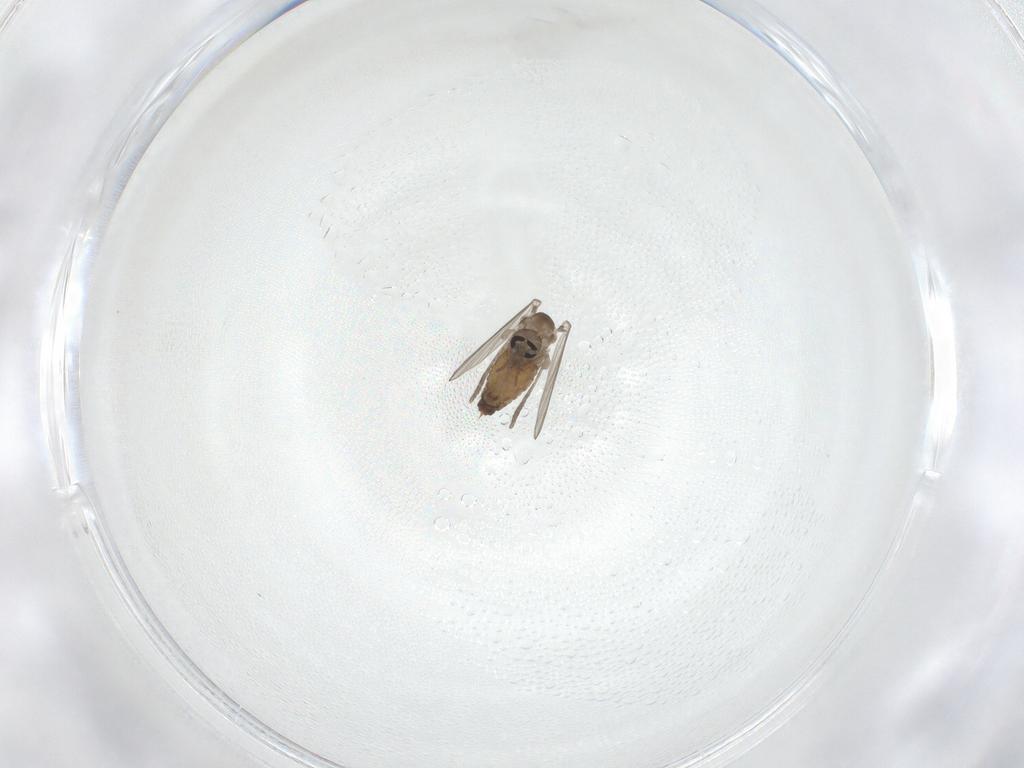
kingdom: Animalia
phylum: Arthropoda
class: Insecta
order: Diptera
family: Psychodidae
